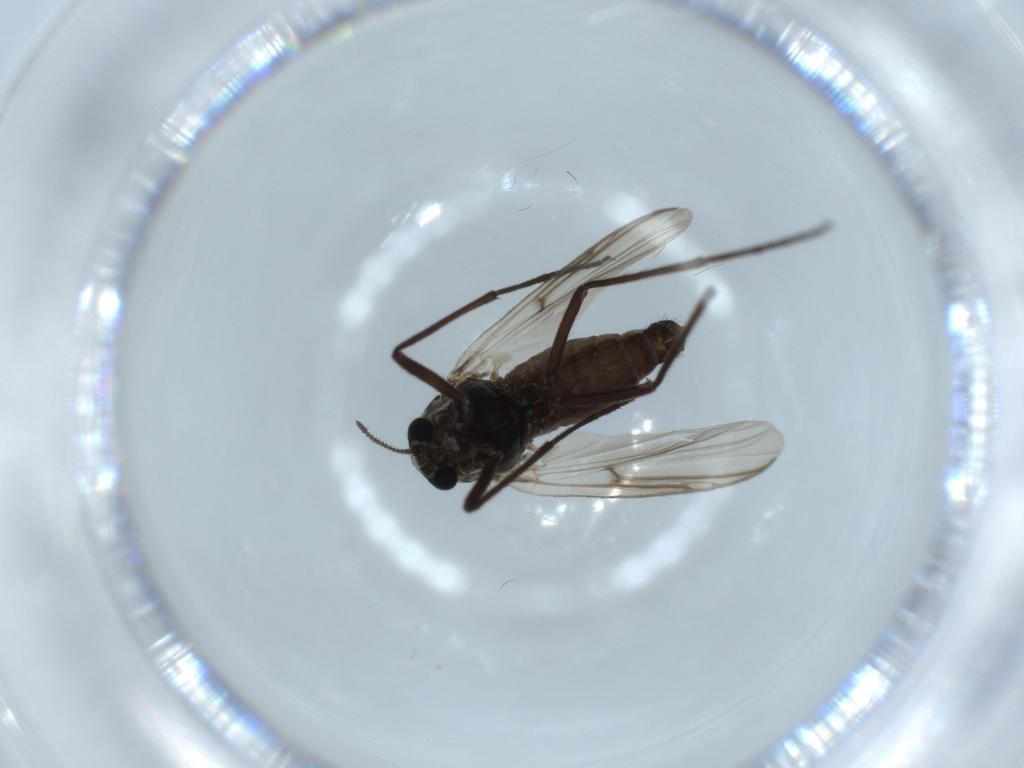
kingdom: Animalia
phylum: Arthropoda
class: Insecta
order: Diptera
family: Chironomidae
